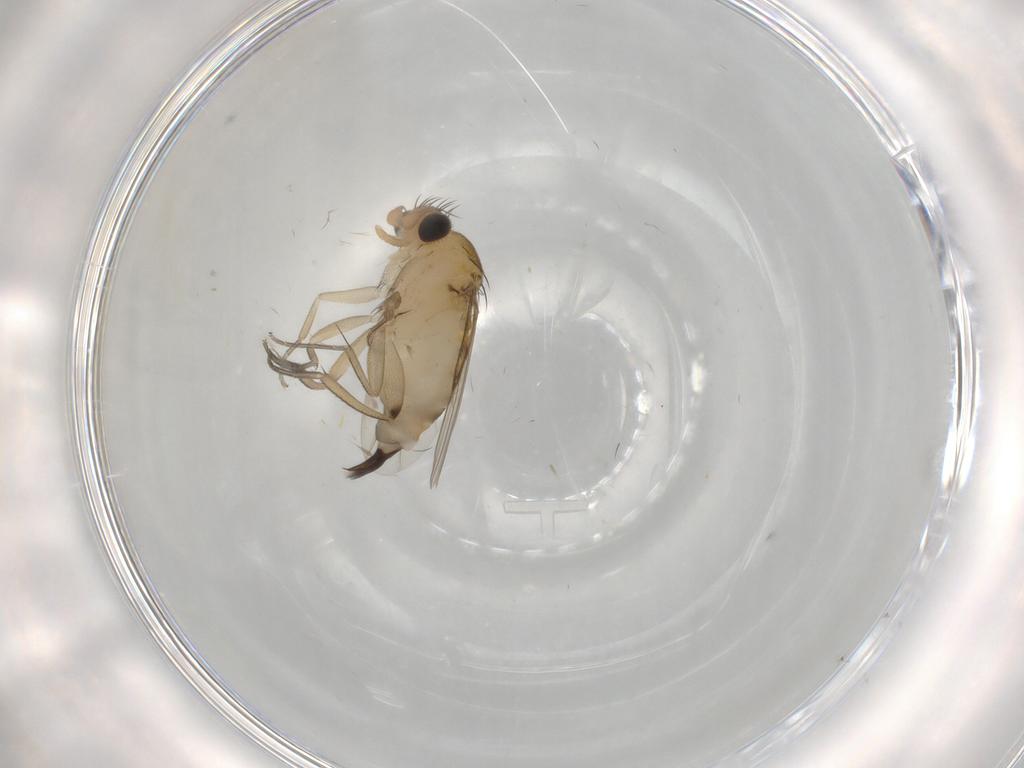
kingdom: Animalia
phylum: Arthropoda
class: Insecta
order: Diptera
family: Phoridae
